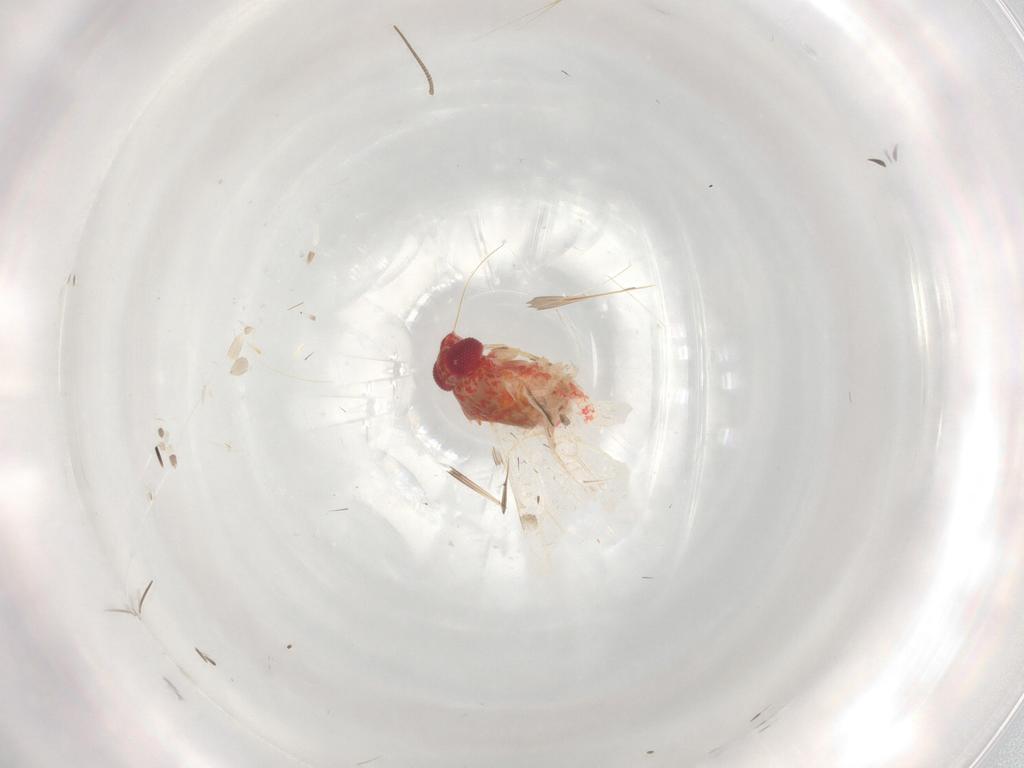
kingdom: Animalia
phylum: Arthropoda
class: Insecta
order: Hemiptera
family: Miridae
